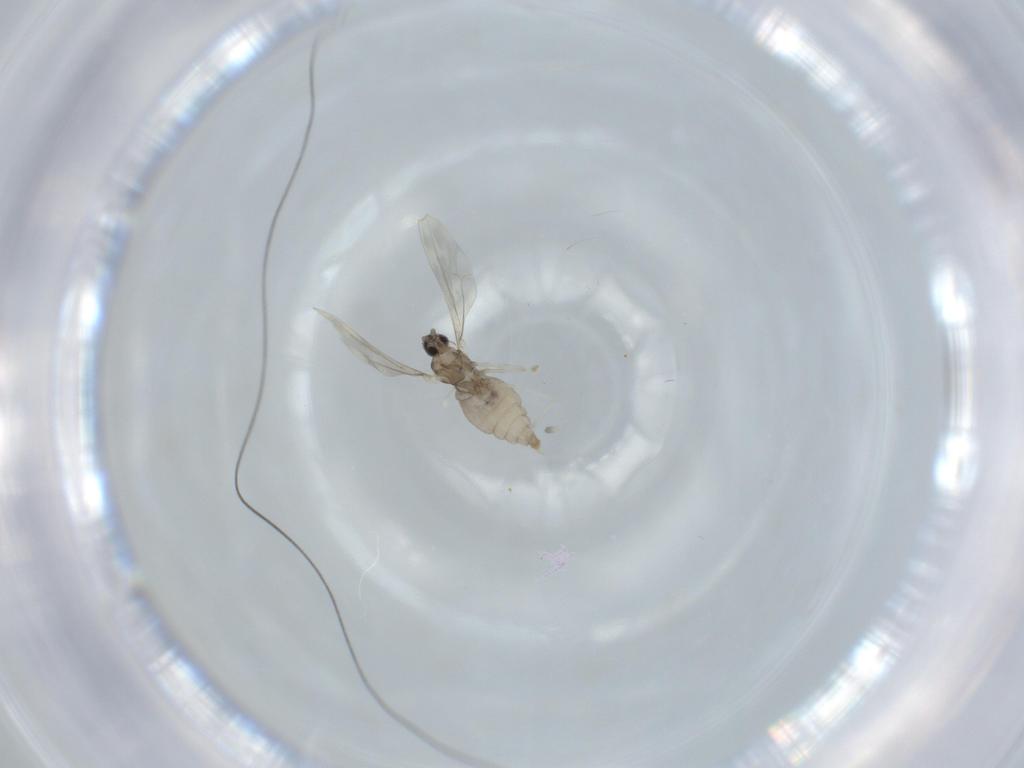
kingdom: Animalia
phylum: Arthropoda
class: Insecta
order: Diptera
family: Cecidomyiidae
